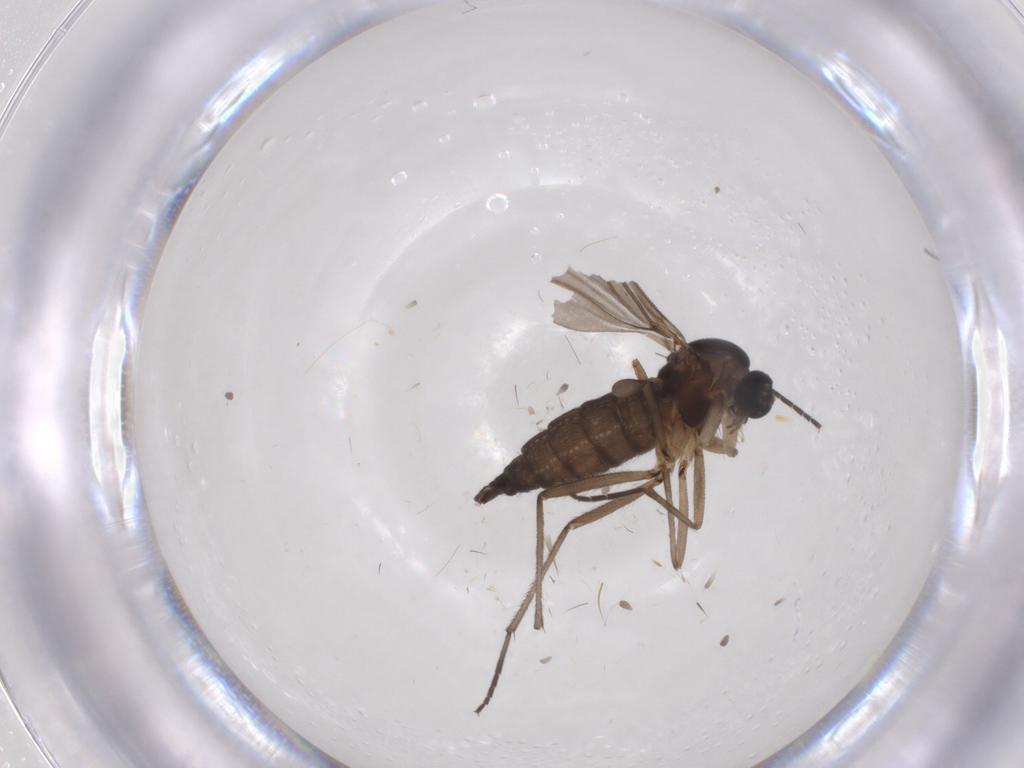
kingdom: Animalia
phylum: Arthropoda
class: Insecta
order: Diptera
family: Sciaridae
